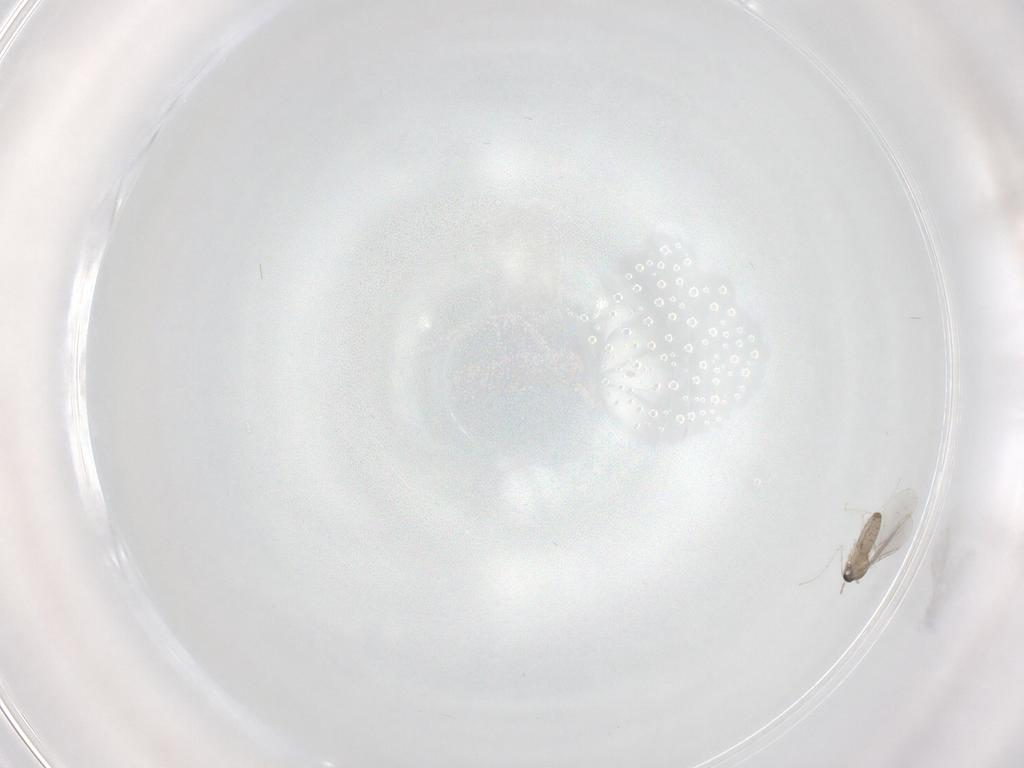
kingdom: Animalia
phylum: Arthropoda
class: Insecta
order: Diptera
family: Cecidomyiidae
